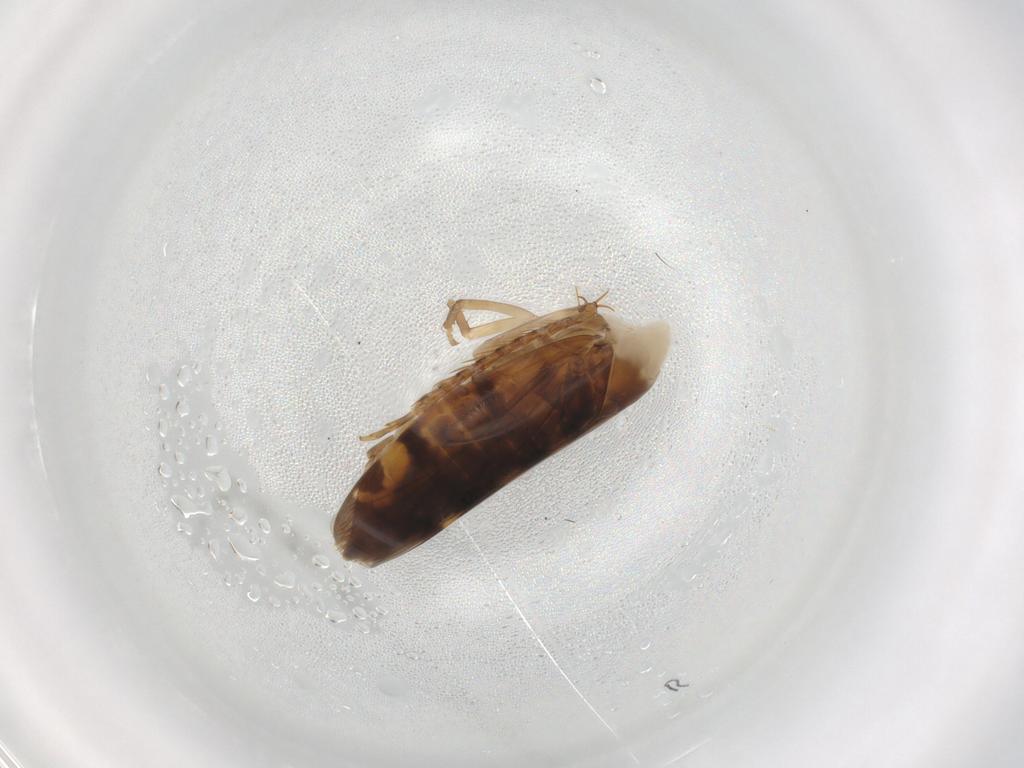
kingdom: Animalia
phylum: Arthropoda
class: Insecta
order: Hemiptera
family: Cicadellidae
